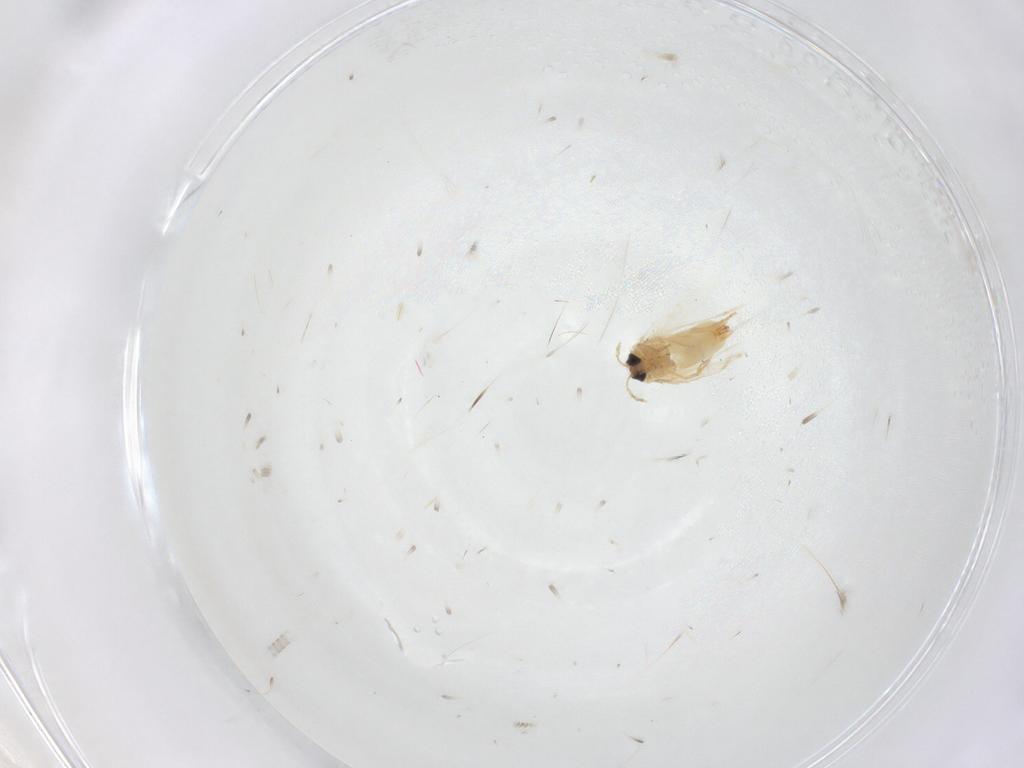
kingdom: Animalia
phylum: Arthropoda
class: Insecta
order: Lepidoptera
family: Crambidae
